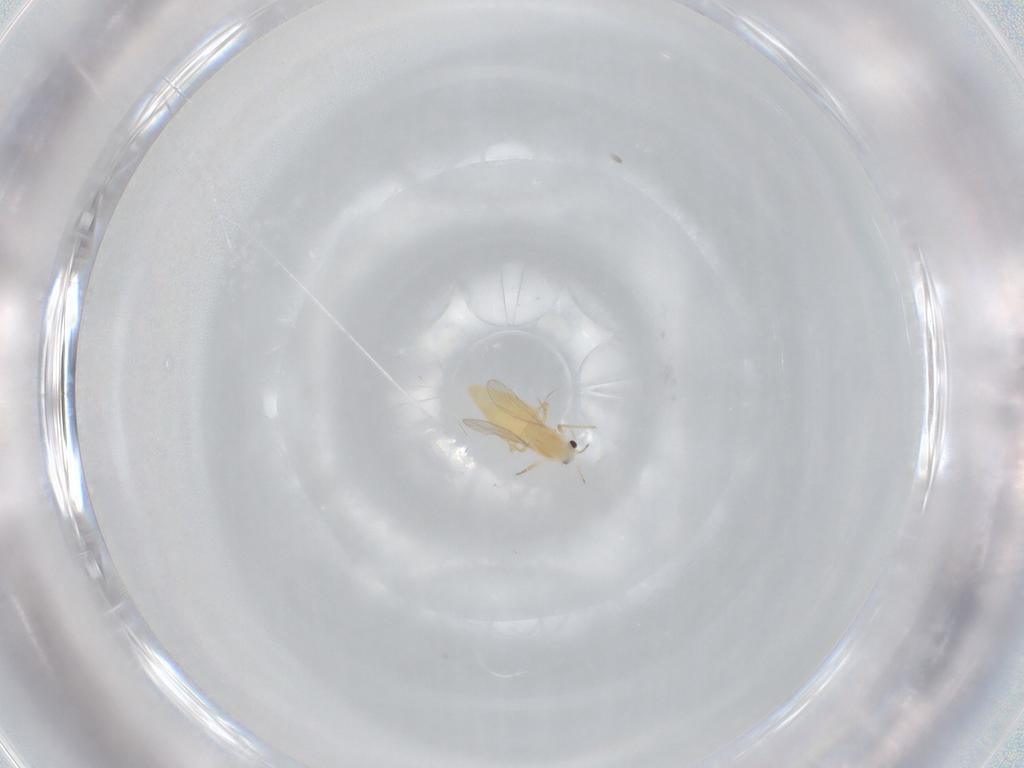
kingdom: Animalia
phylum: Arthropoda
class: Insecta
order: Diptera
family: Chironomidae
